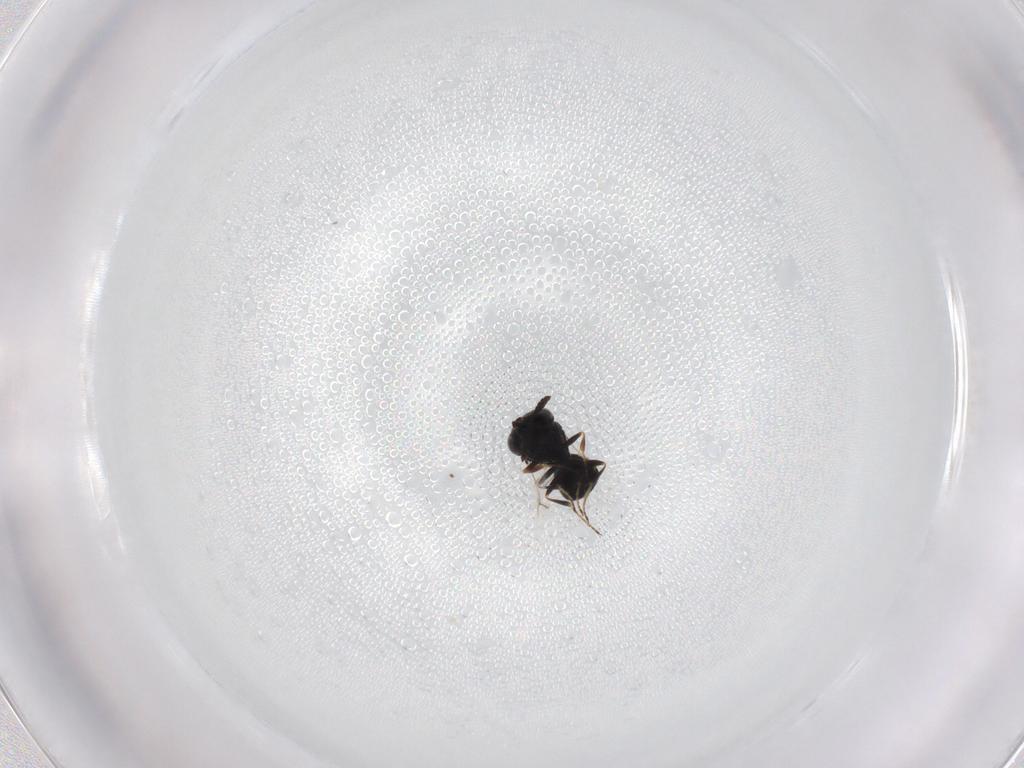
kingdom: Animalia
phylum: Arthropoda
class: Insecta
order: Hymenoptera
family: Scelionidae
